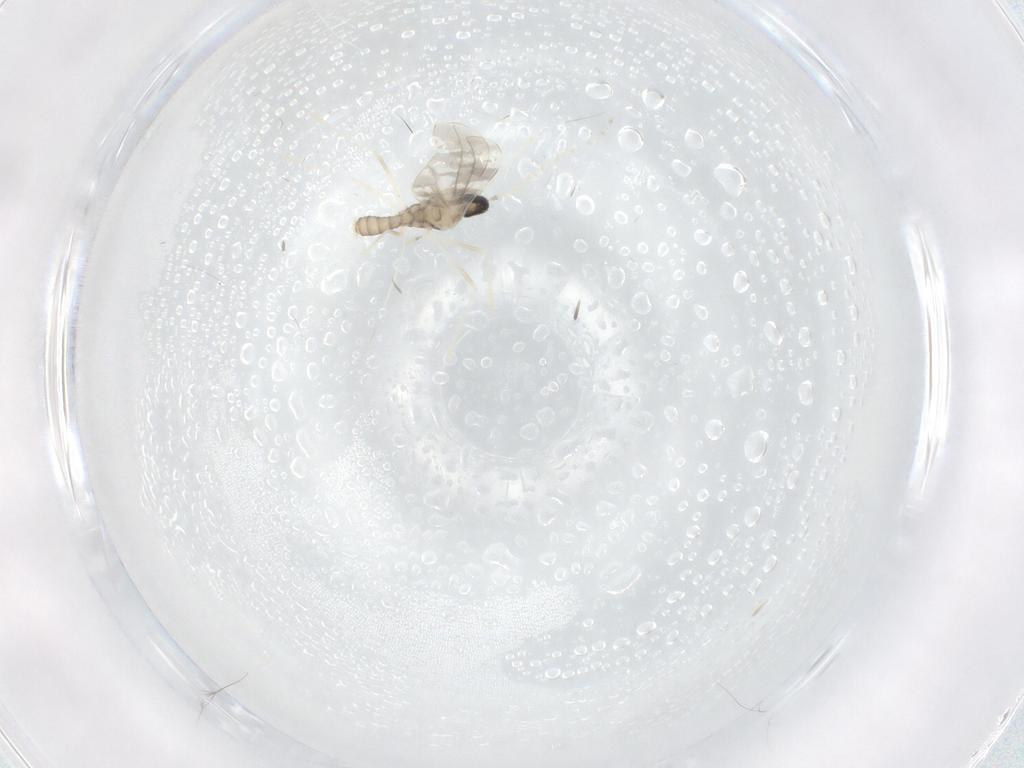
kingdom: Animalia
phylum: Arthropoda
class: Insecta
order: Diptera
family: Cecidomyiidae
